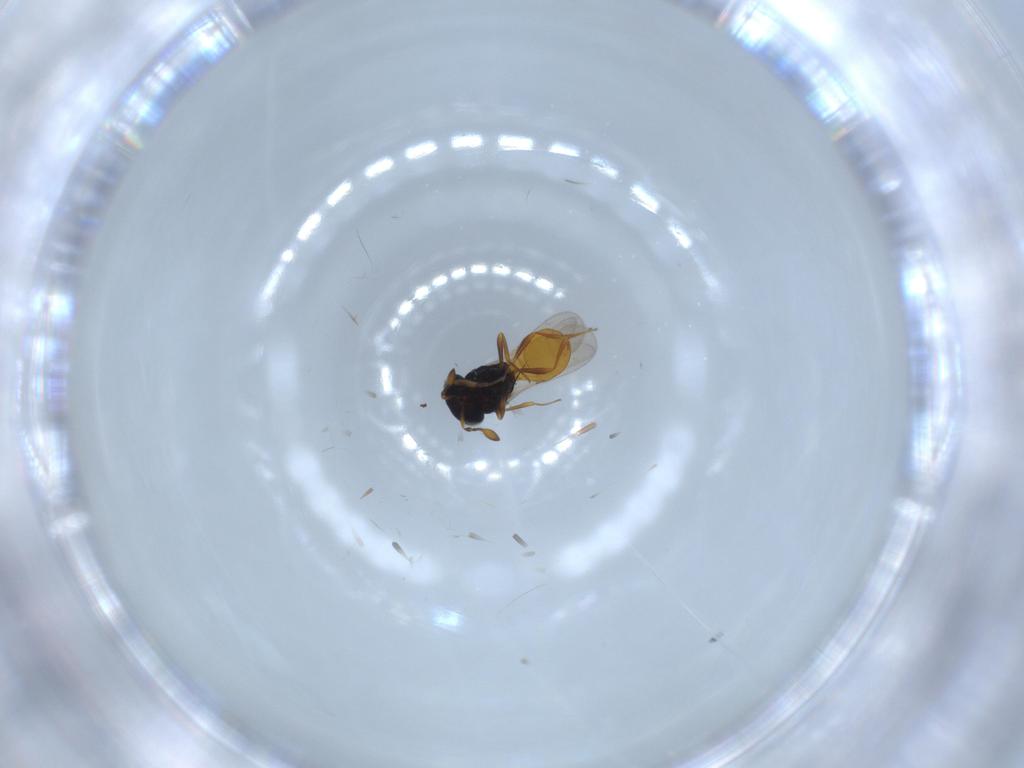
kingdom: Animalia
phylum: Arthropoda
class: Insecta
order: Hymenoptera
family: Scelionidae
